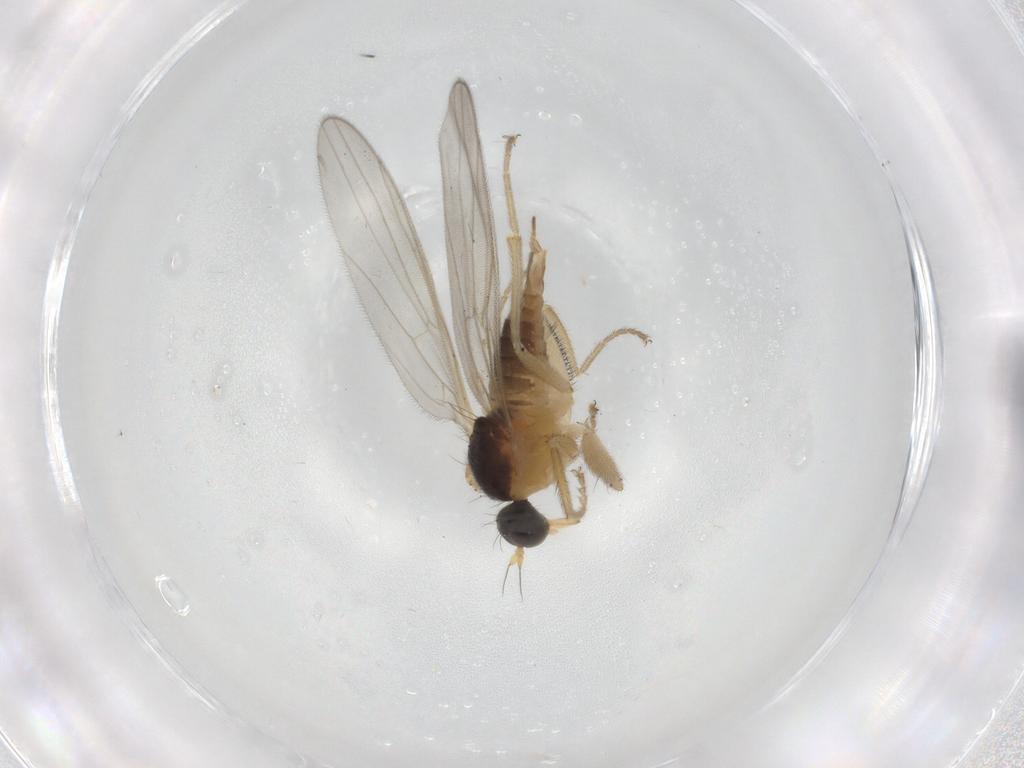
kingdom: Animalia
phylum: Arthropoda
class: Insecta
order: Diptera
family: Hybotidae
